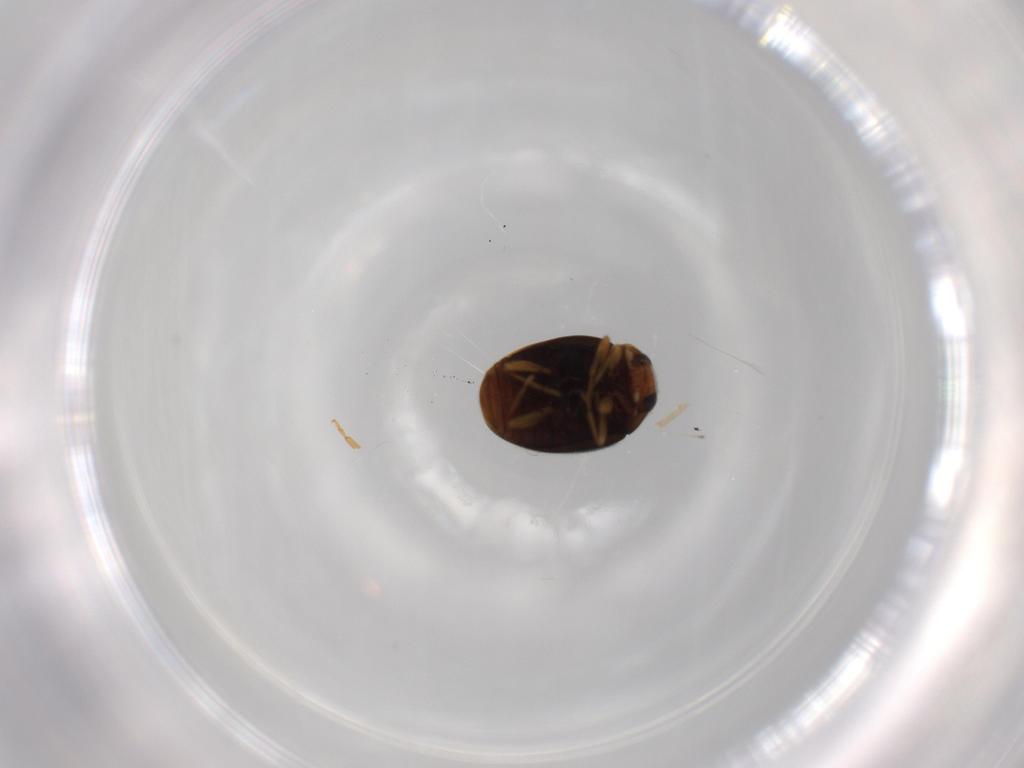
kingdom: Animalia
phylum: Arthropoda
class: Insecta
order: Coleoptera
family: Coccinellidae
